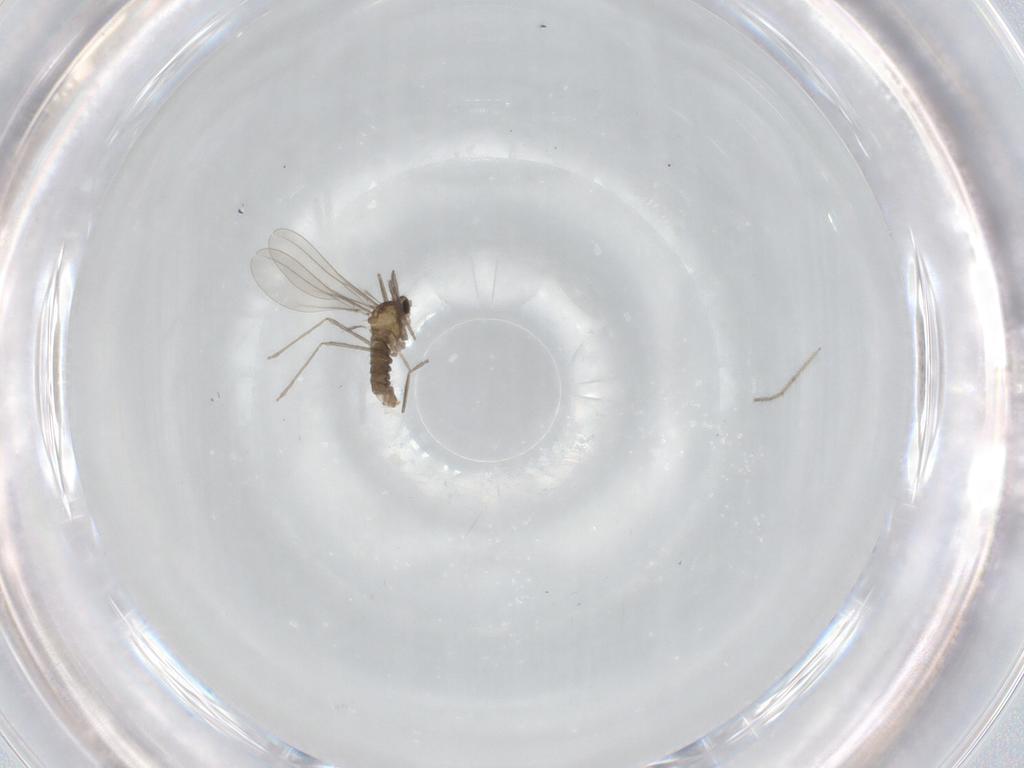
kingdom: Animalia
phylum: Arthropoda
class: Insecta
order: Diptera
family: Cecidomyiidae
